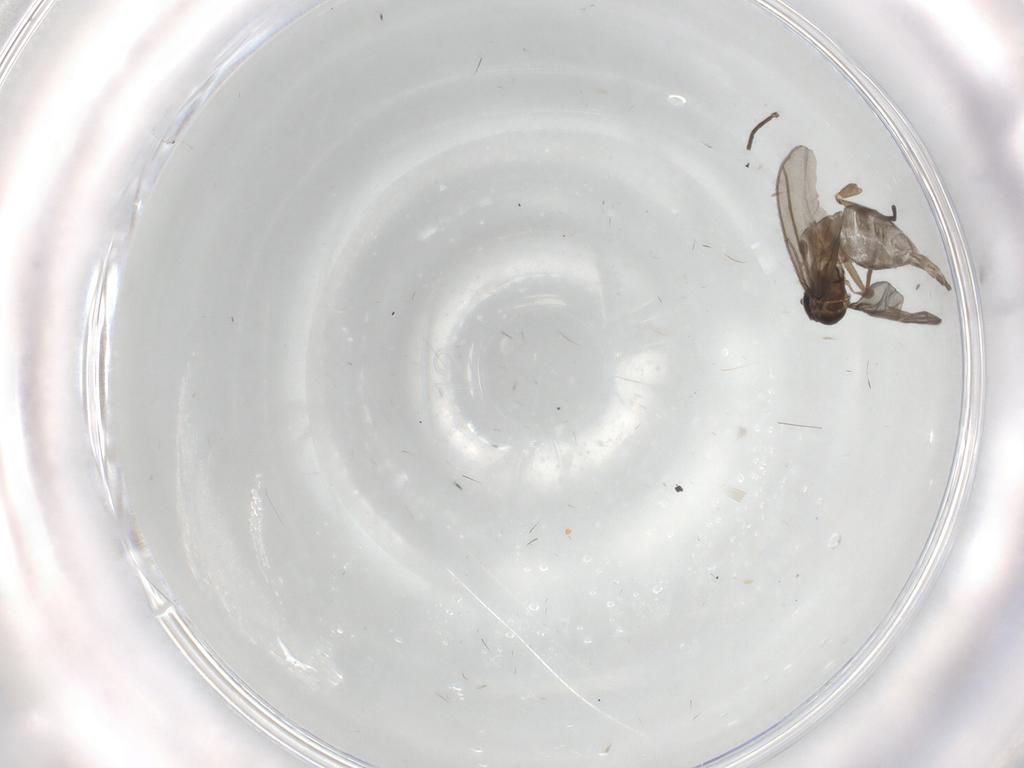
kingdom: Animalia
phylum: Arthropoda
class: Insecta
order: Diptera
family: Sciaridae
